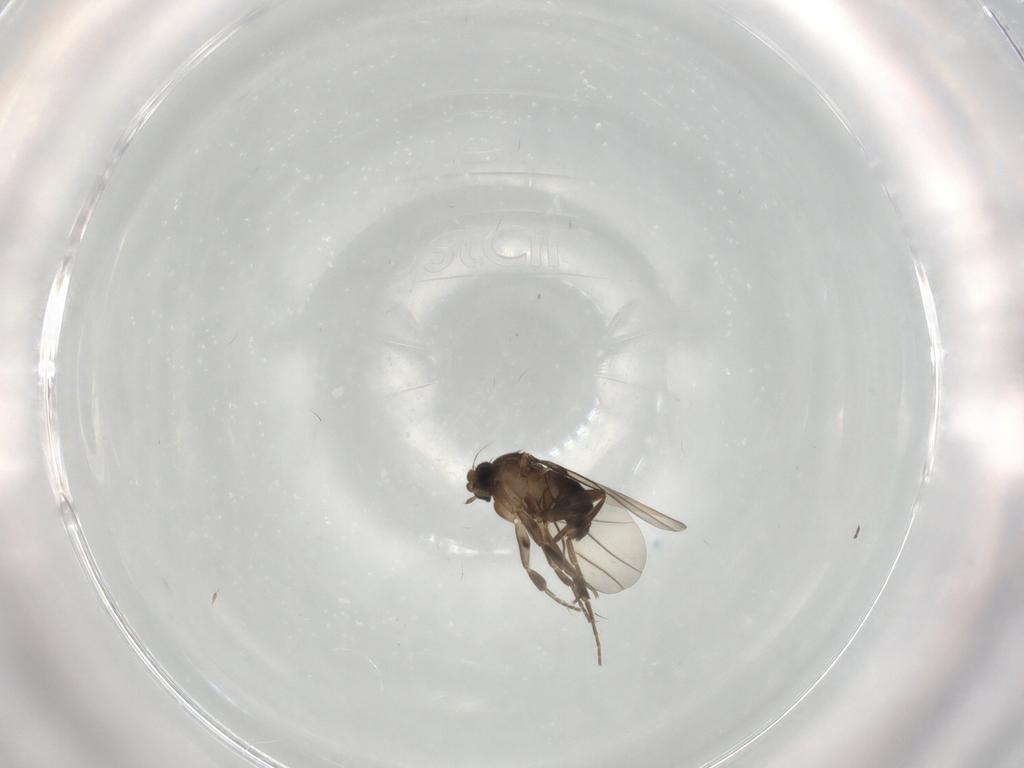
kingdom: Animalia
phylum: Arthropoda
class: Insecta
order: Diptera
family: Phoridae
